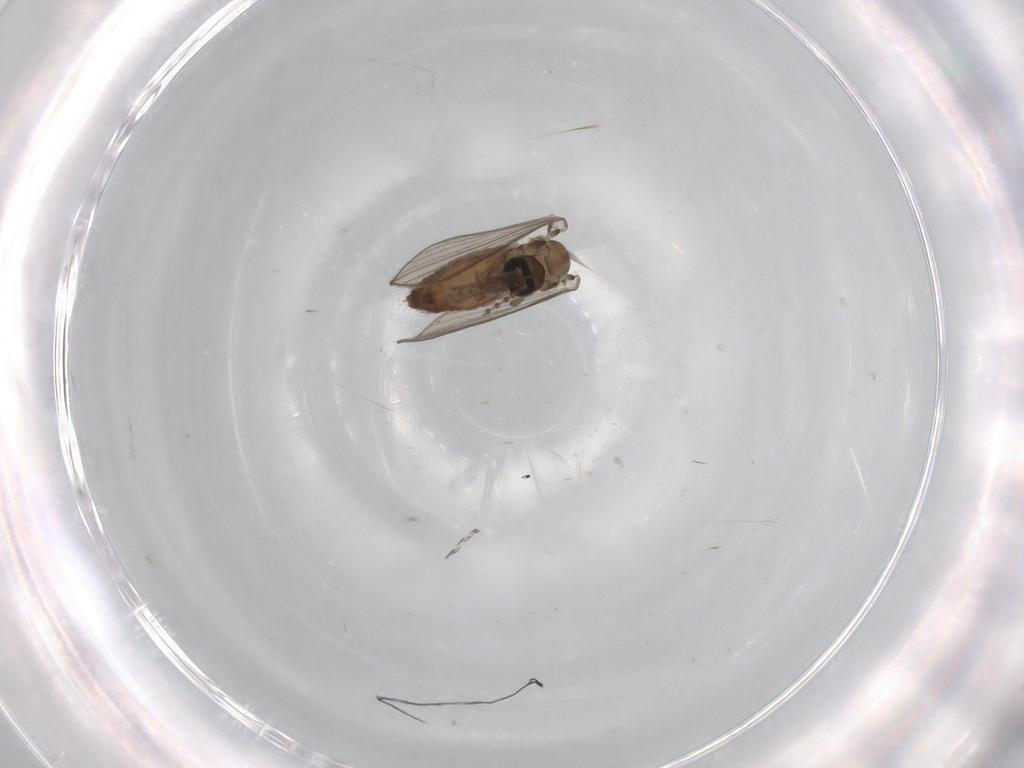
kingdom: Animalia
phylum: Arthropoda
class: Insecta
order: Diptera
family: Psychodidae
